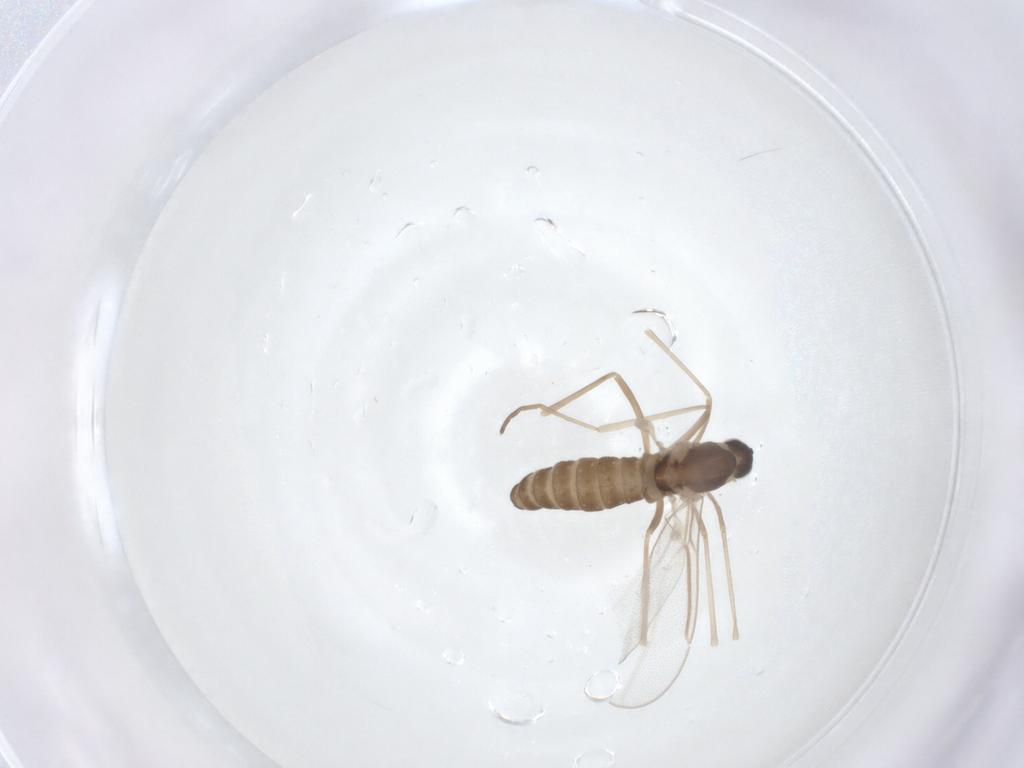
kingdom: Animalia
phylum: Arthropoda
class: Insecta
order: Diptera
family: Cecidomyiidae
